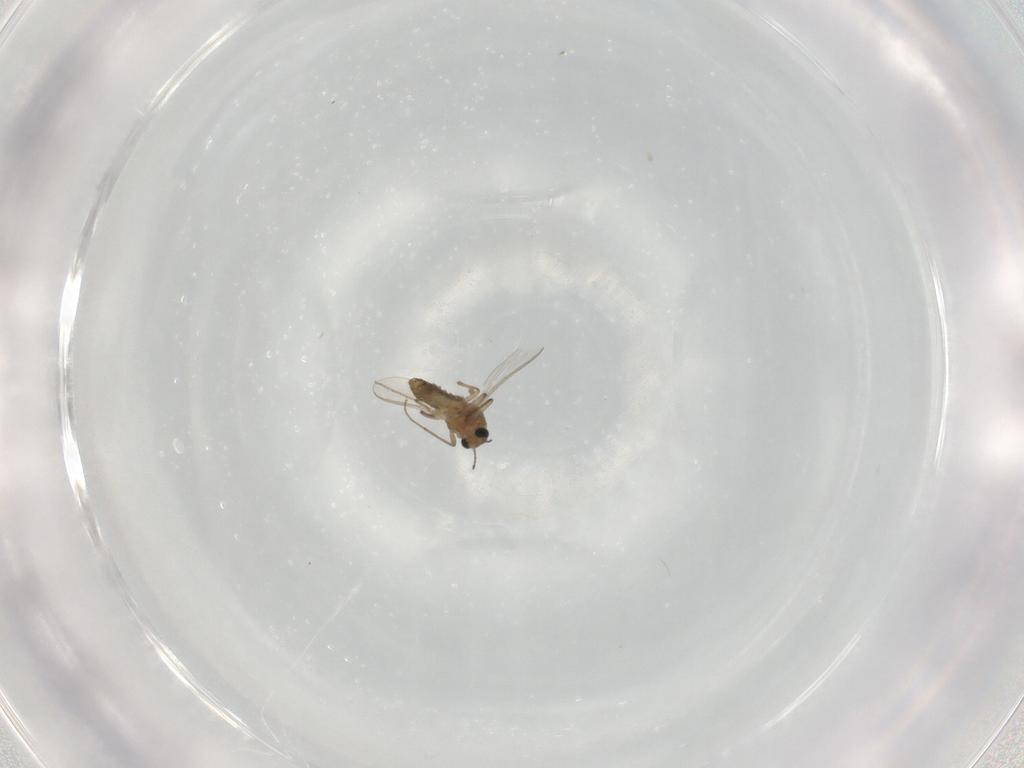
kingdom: Animalia
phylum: Arthropoda
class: Insecta
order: Diptera
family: Chironomidae
